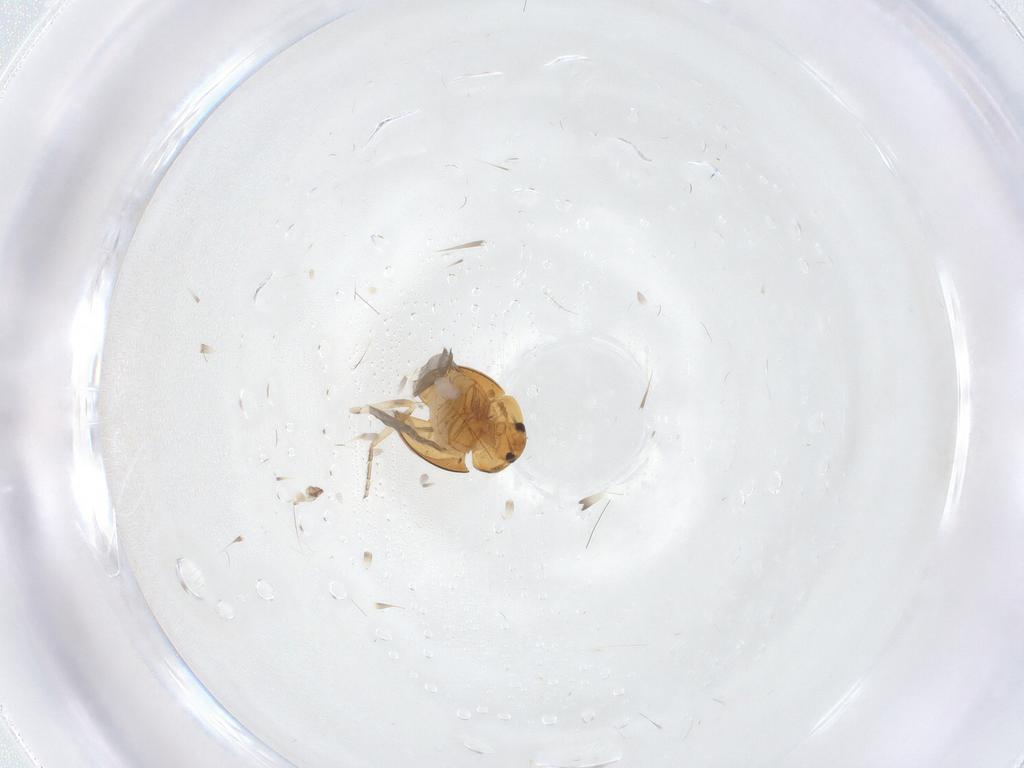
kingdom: Animalia
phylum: Arthropoda
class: Insecta
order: Coleoptera
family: Phalacridae
